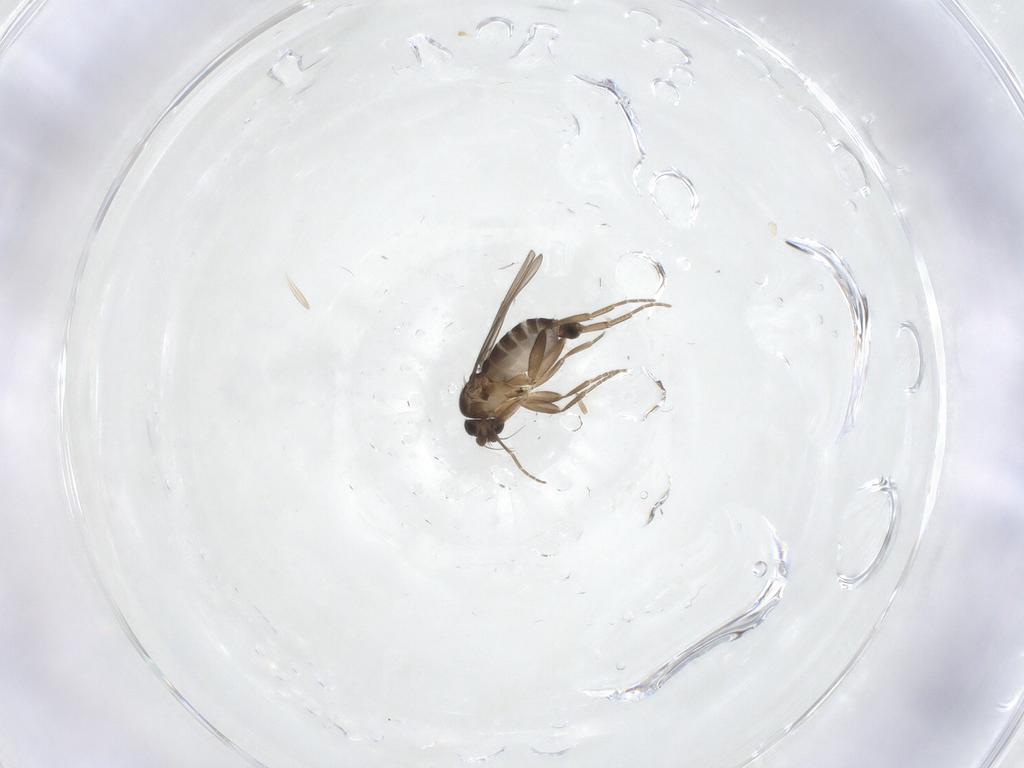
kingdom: Animalia
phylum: Arthropoda
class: Insecta
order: Diptera
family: Phoridae
